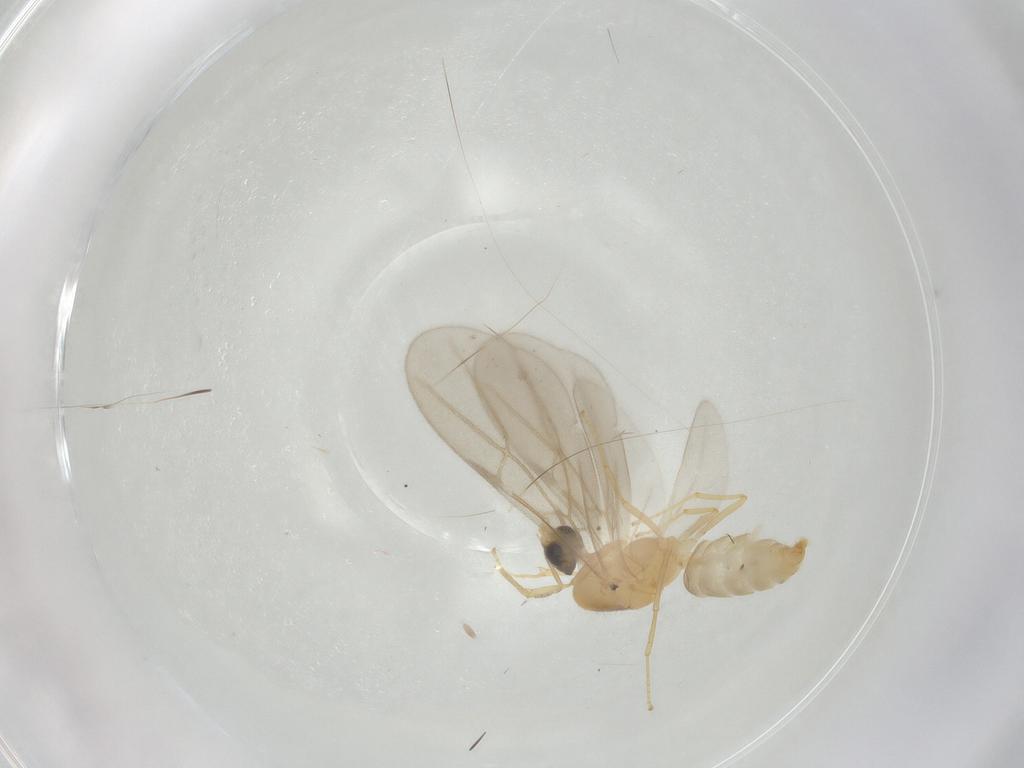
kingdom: Animalia
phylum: Arthropoda
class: Insecta
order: Hymenoptera
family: Formicidae
